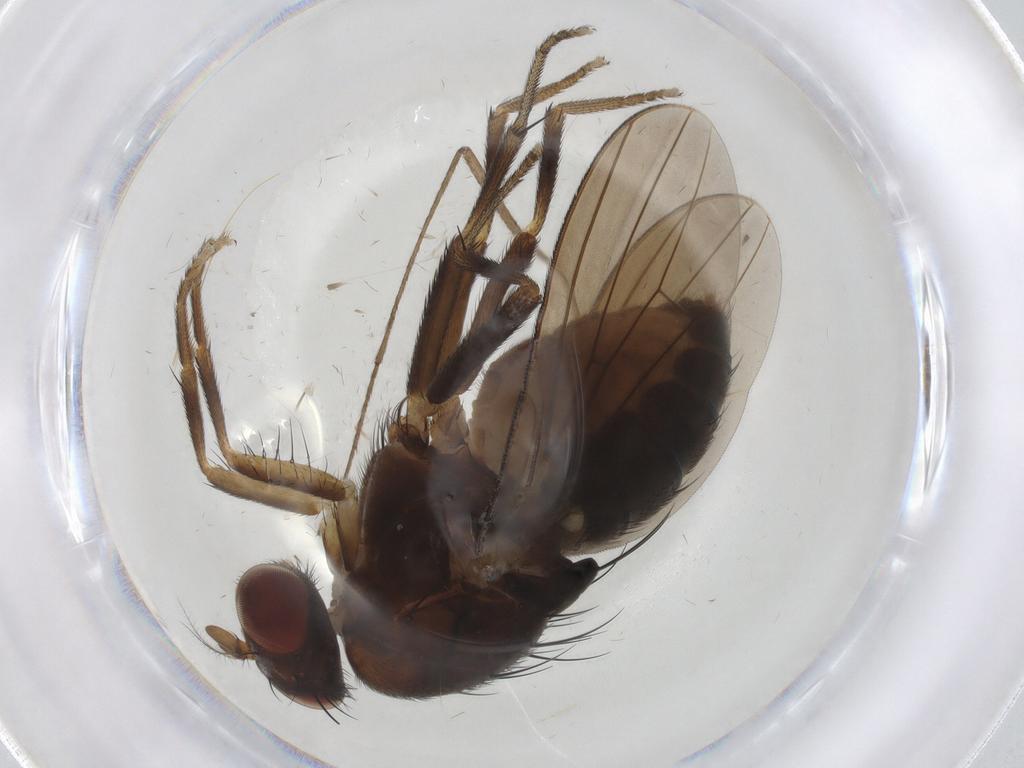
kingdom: Animalia
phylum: Arthropoda
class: Insecta
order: Diptera
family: Limoniidae
